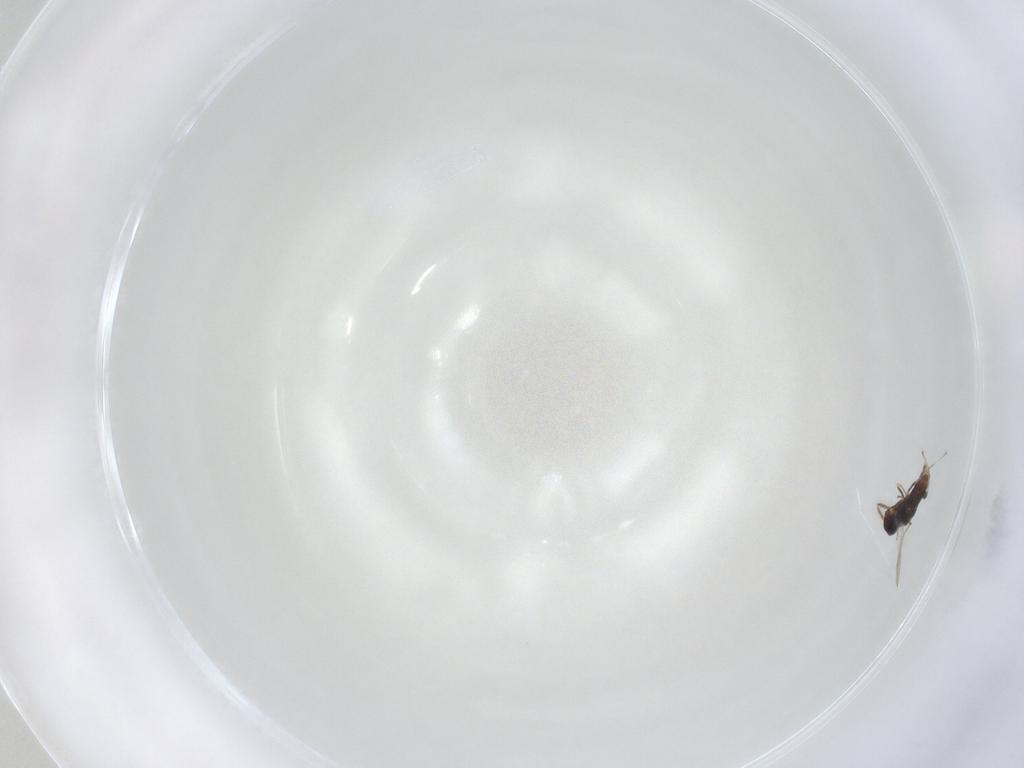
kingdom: Animalia
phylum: Arthropoda
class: Insecta
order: Hymenoptera
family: Eulophidae
